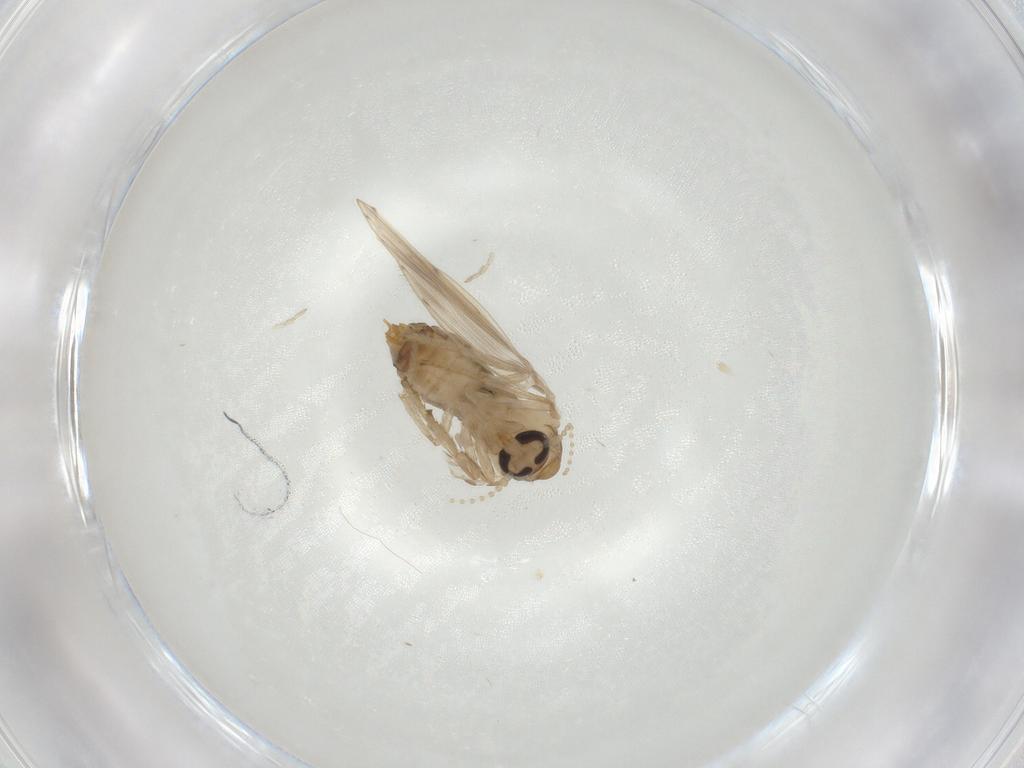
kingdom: Animalia
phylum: Arthropoda
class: Insecta
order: Diptera
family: Psychodidae
